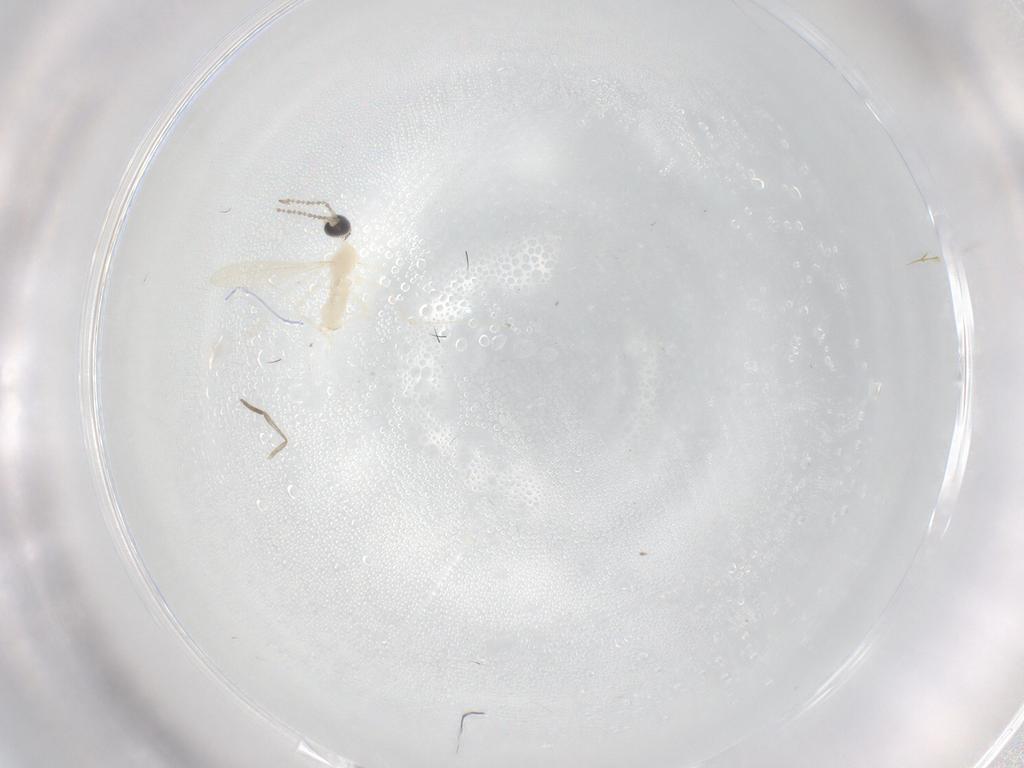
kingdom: Animalia
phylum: Arthropoda
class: Insecta
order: Diptera
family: Cecidomyiidae
